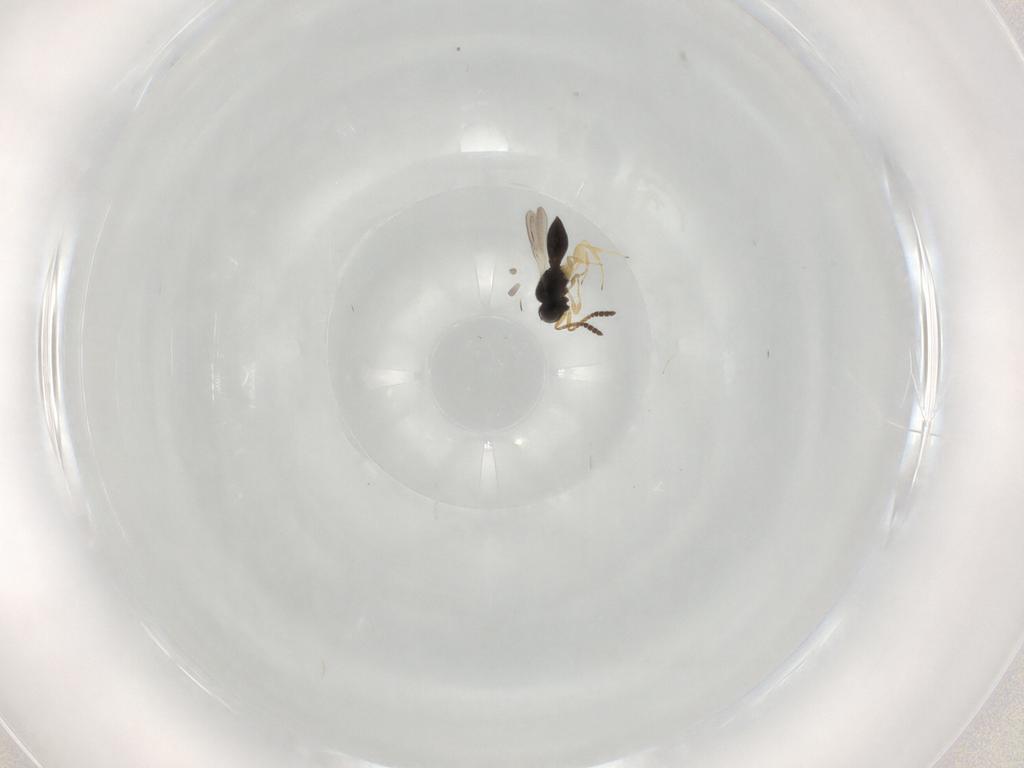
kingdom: Animalia
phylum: Arthropoda
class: Insecta
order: Hymenoptera
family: Scelionidae
